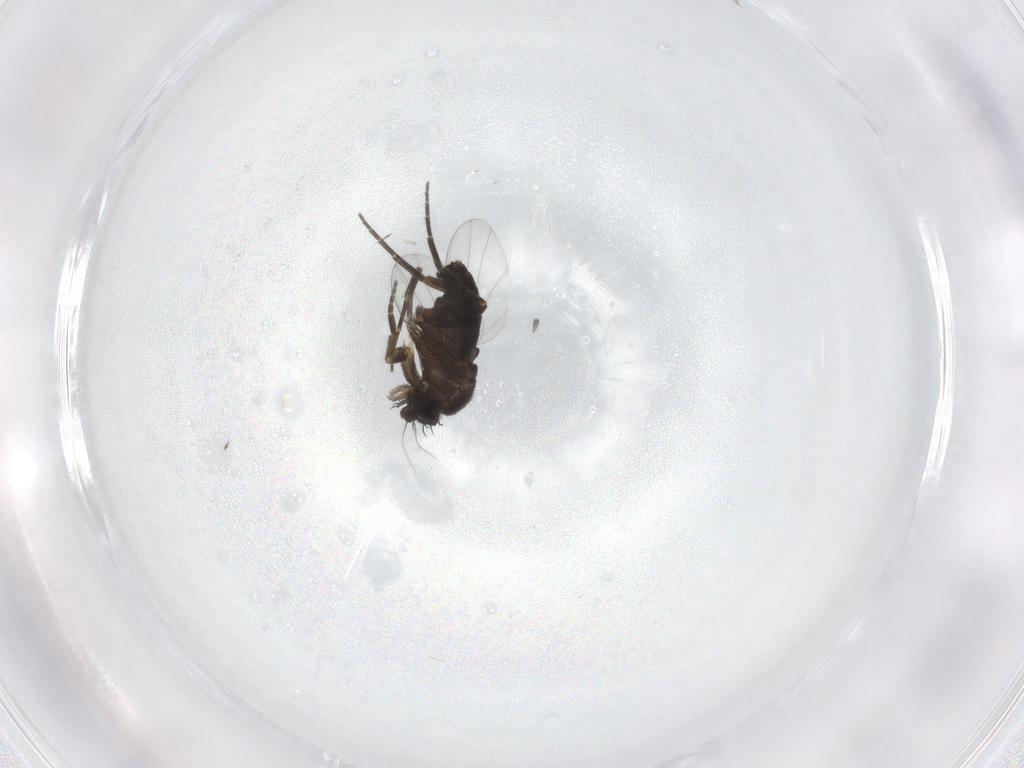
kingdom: Animalia
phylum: Arthropoda
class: Insecta
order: Diptera
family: Phoridae
